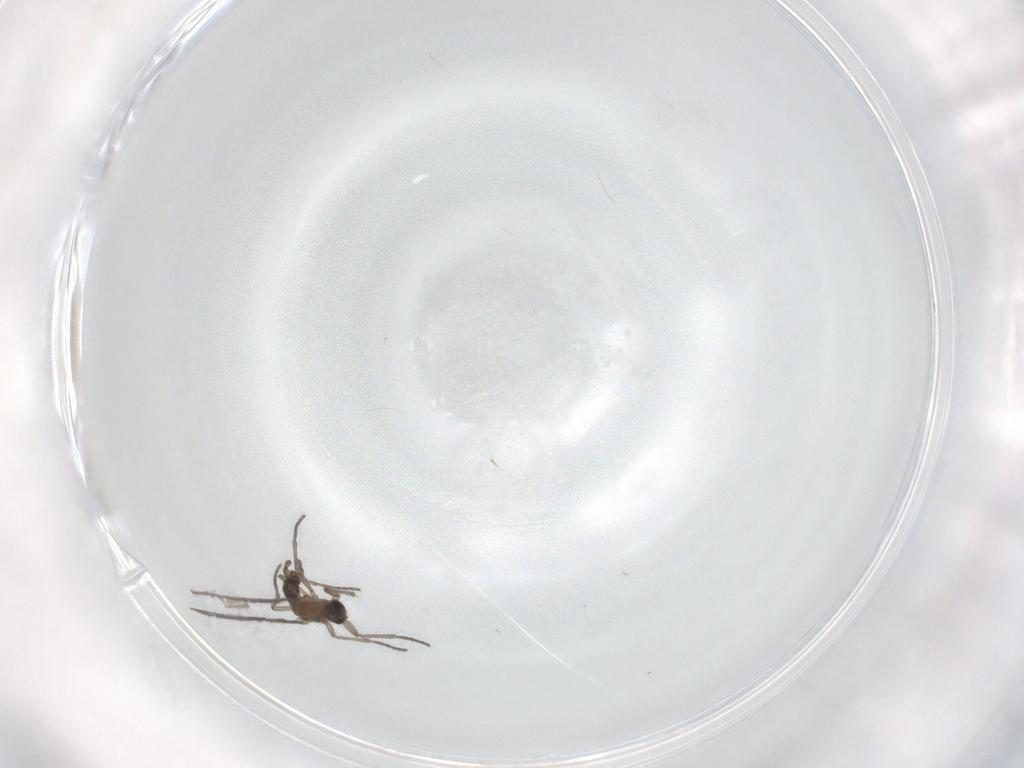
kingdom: Animalia
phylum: Arthropoda
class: Insecta
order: Diptera
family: Sciaridae
